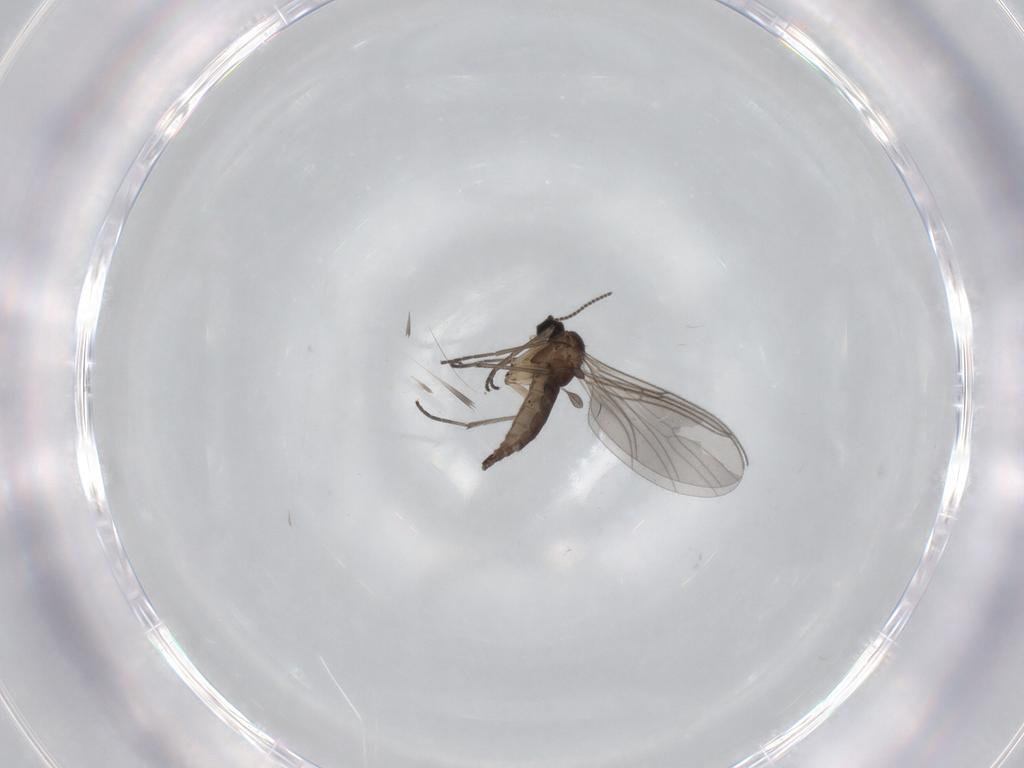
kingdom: Animalia
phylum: Arthropoda
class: Insecta
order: Diptera
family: Sciaridae
